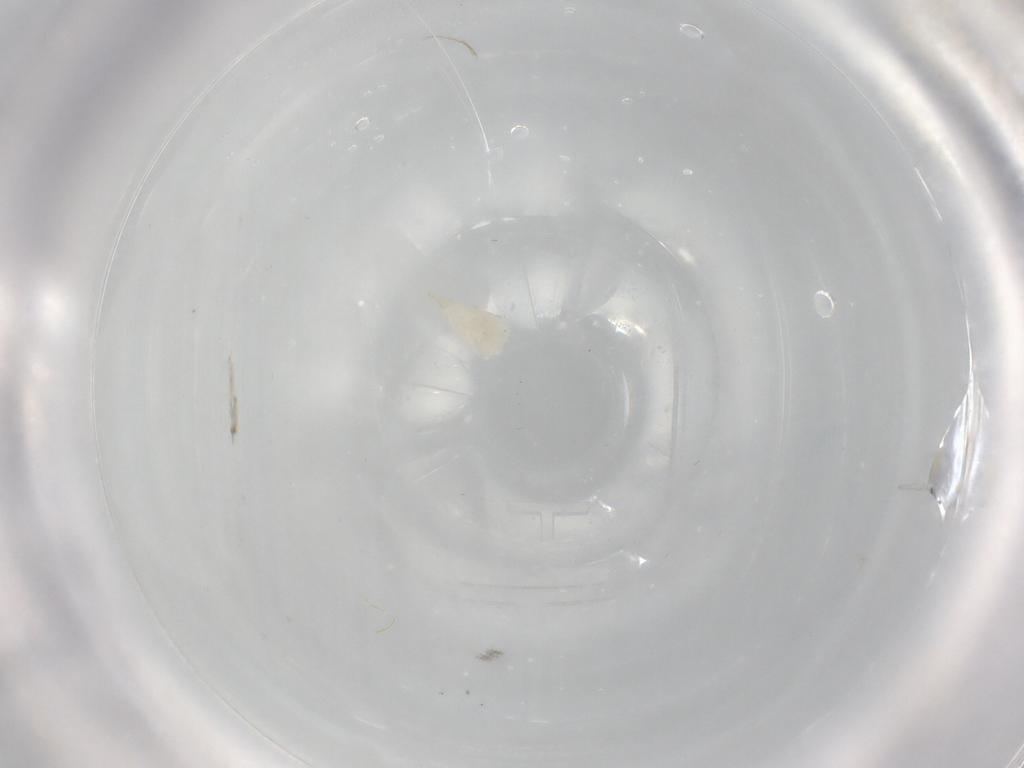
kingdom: Animalia
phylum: Arthropoda
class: Insecta
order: Diptera
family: Cecidomyiidae
